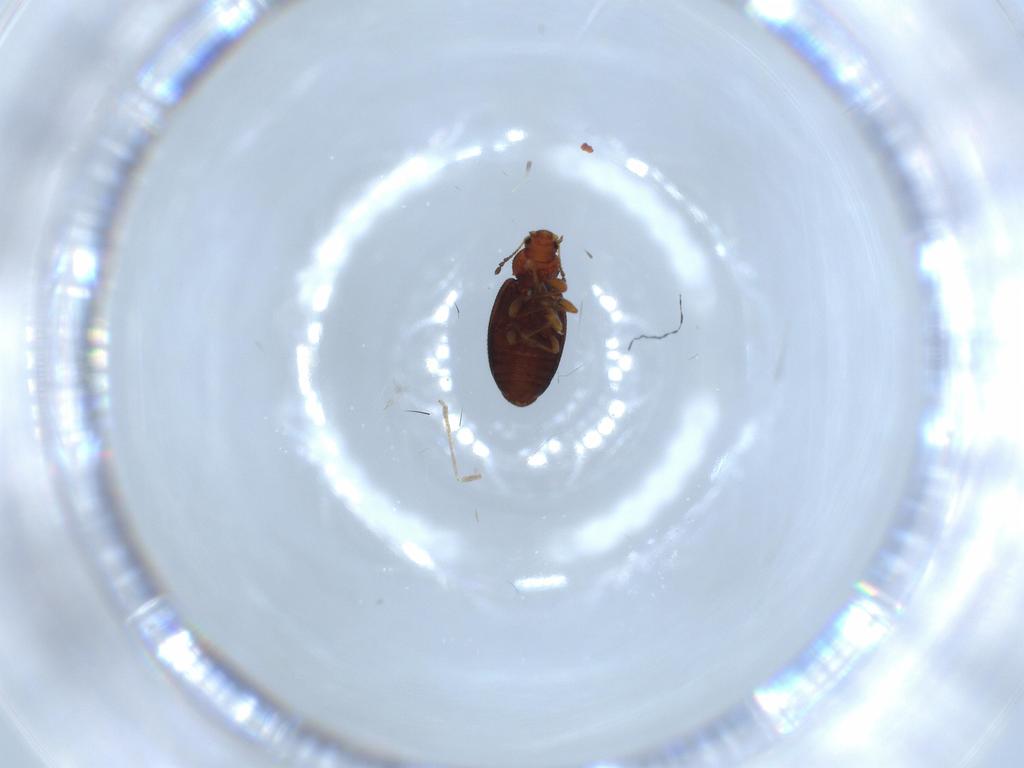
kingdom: Animalia
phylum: Arthropoda
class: Insecta
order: Coleoptera
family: Latridiidae
